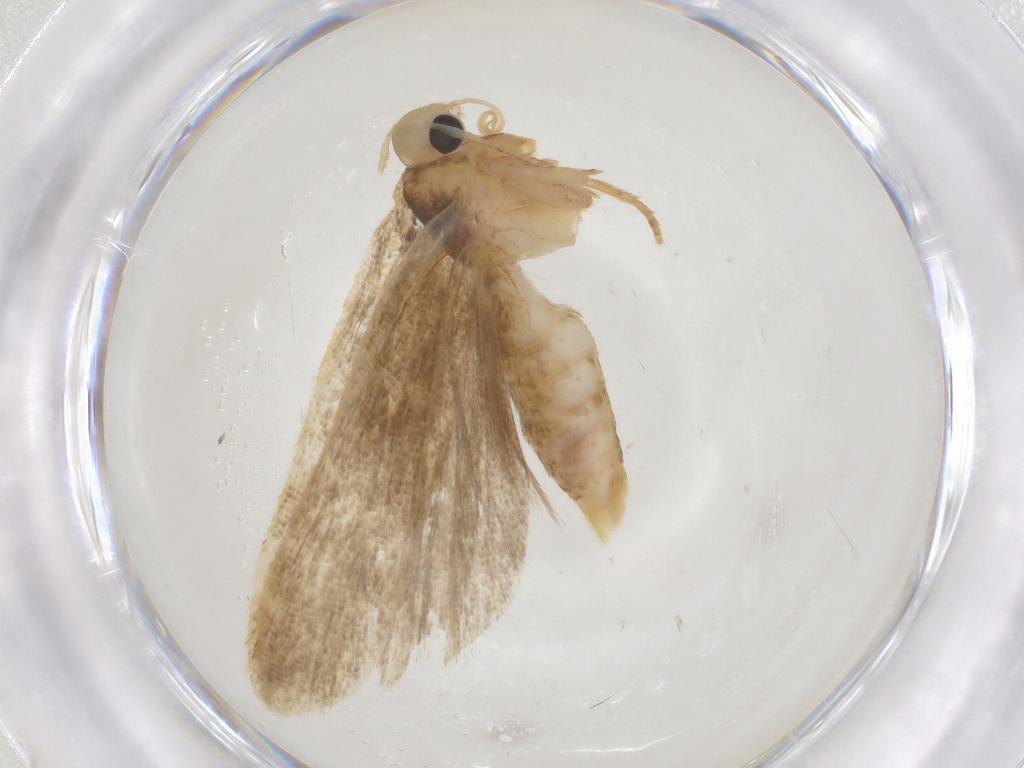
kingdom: Animalia
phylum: Arthropoda
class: Insecta
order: Lepidoptera
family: Gelechiidae
